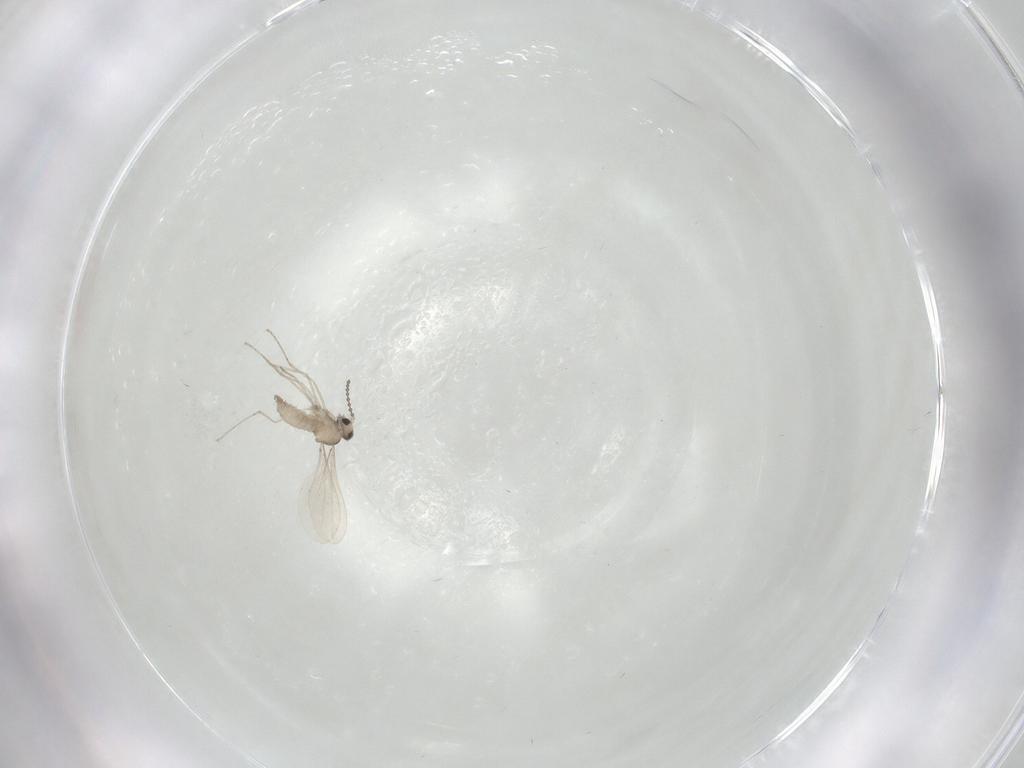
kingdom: Animalia
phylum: Arthropoda
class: Insecta
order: Diptera
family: Cecidomyiidae
